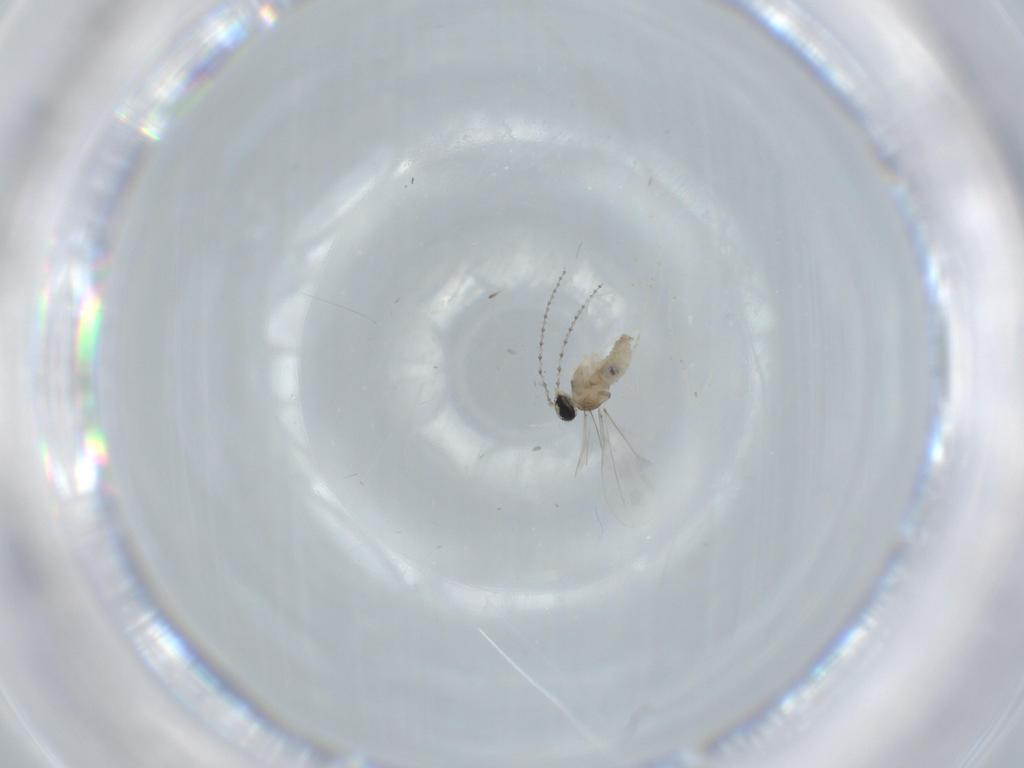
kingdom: Animalia
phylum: Arthropoda
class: Insecta
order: Diptera
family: Cecidomyiidae
